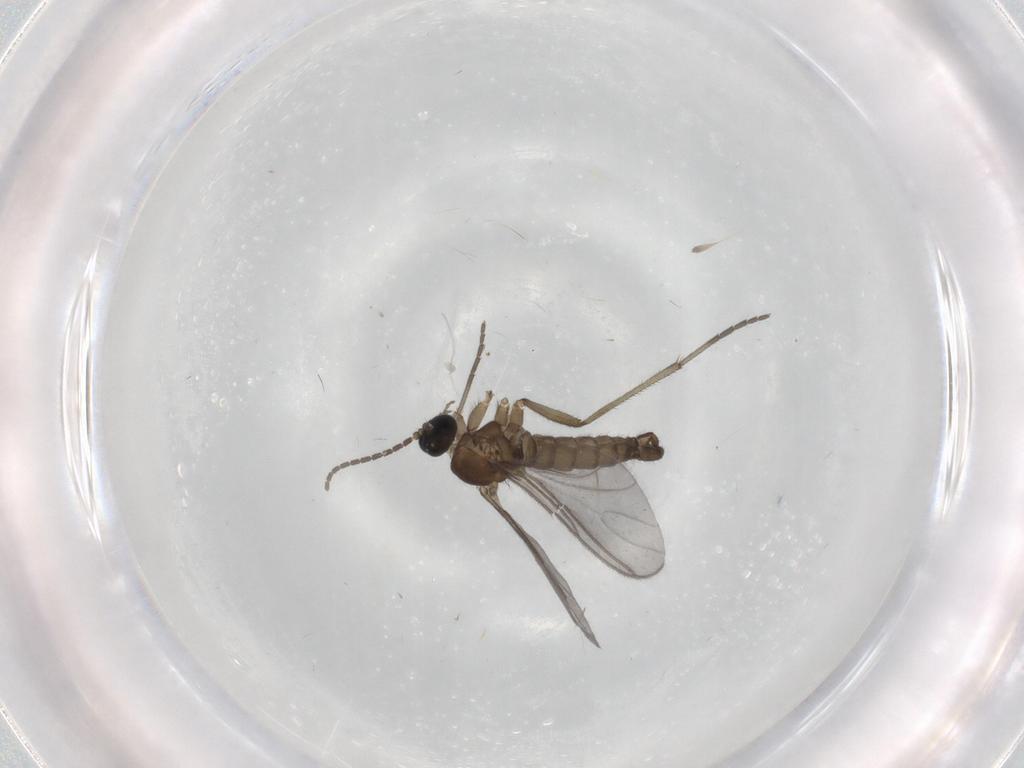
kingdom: Animalia
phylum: Arthropoda
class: Insecta
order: Diptera
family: Sciaridae
